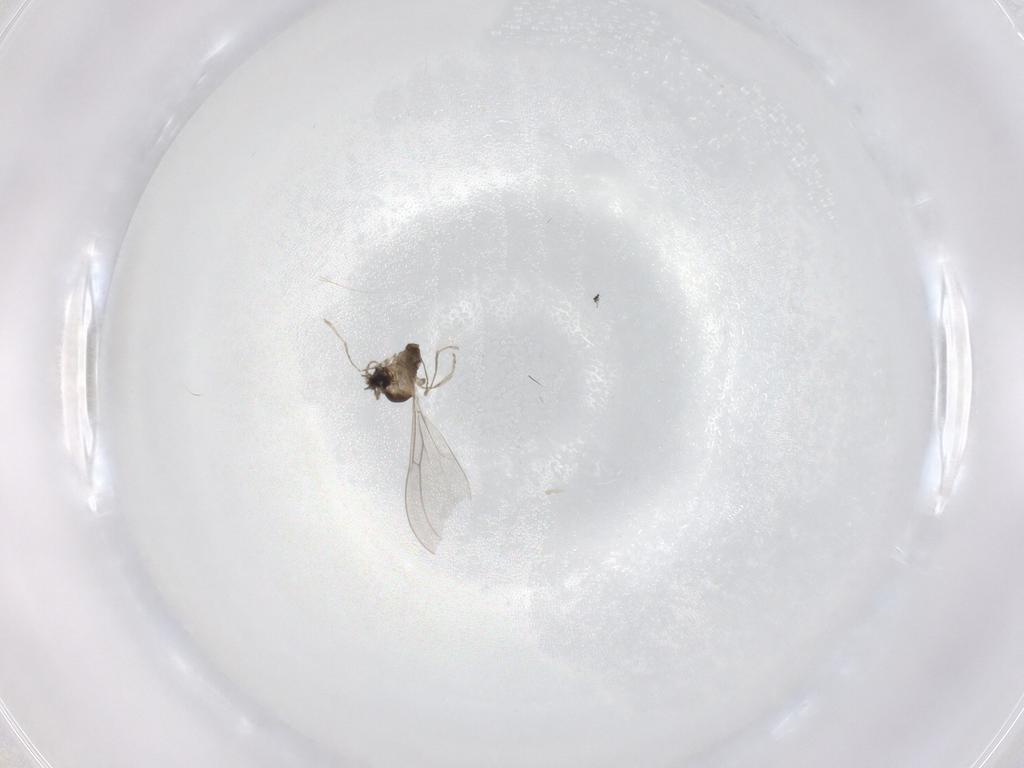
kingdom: Animalia
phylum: Arthropoda
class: Insecta
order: Diptera
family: Cecidomyiidae
